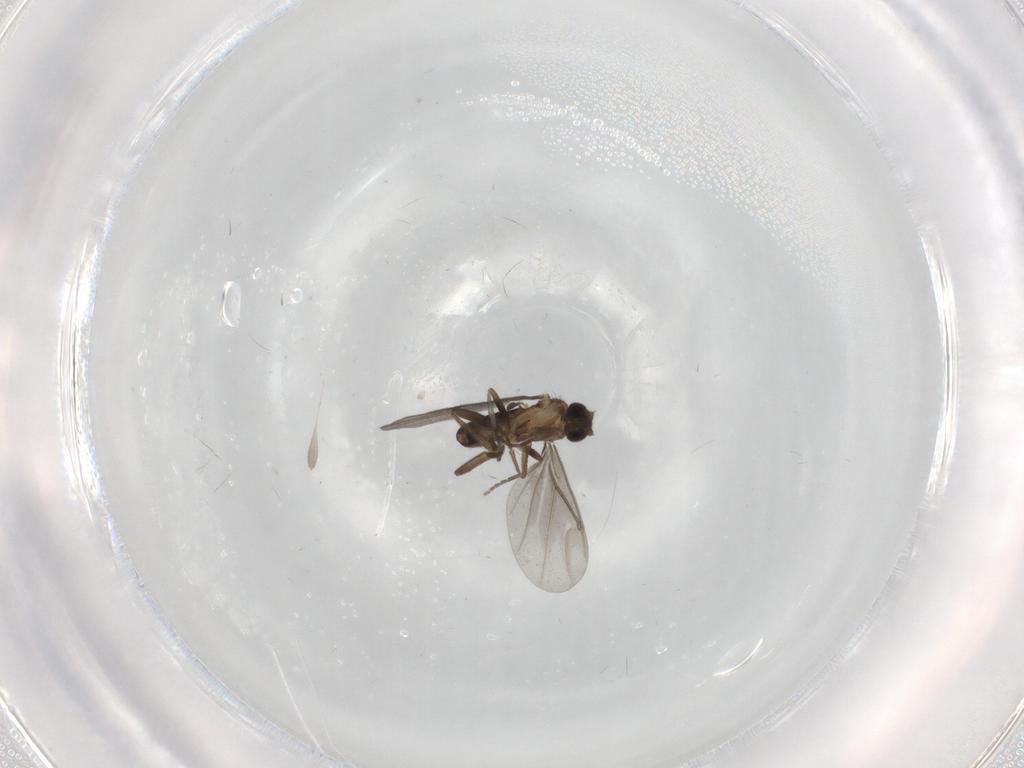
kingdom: Animalia
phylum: Arthropoda
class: Insecta
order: Diptera
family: Phoridae
